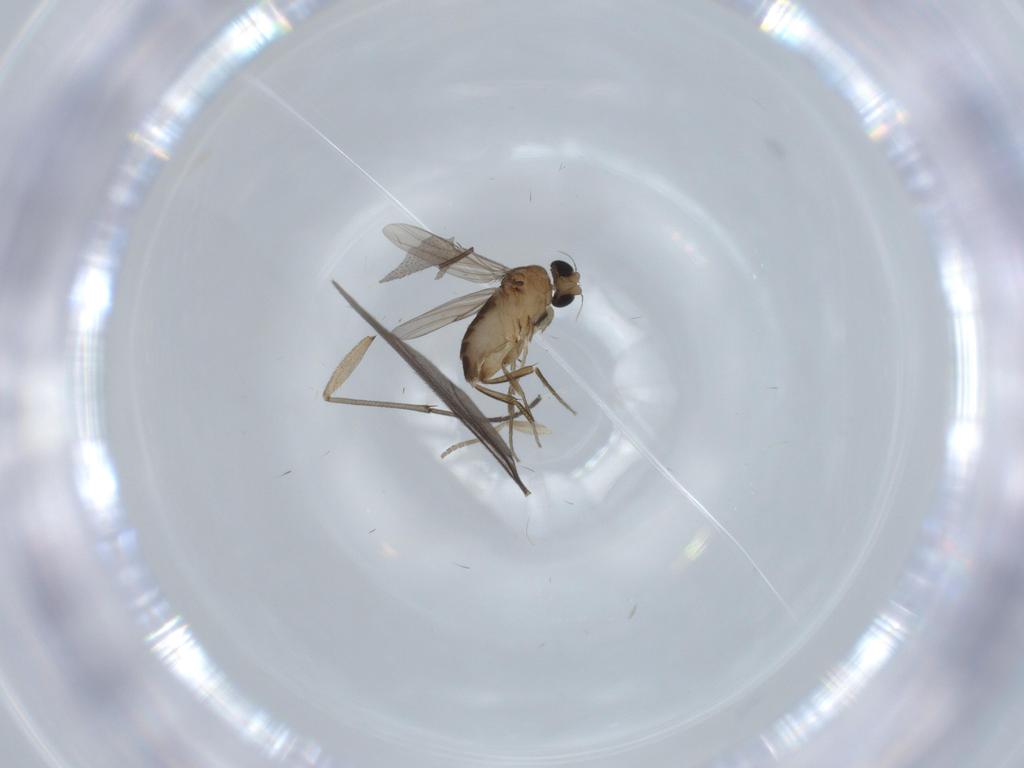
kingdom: Animalia
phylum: Arthropoda
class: Insecta
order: Diptera
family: Phoridae
